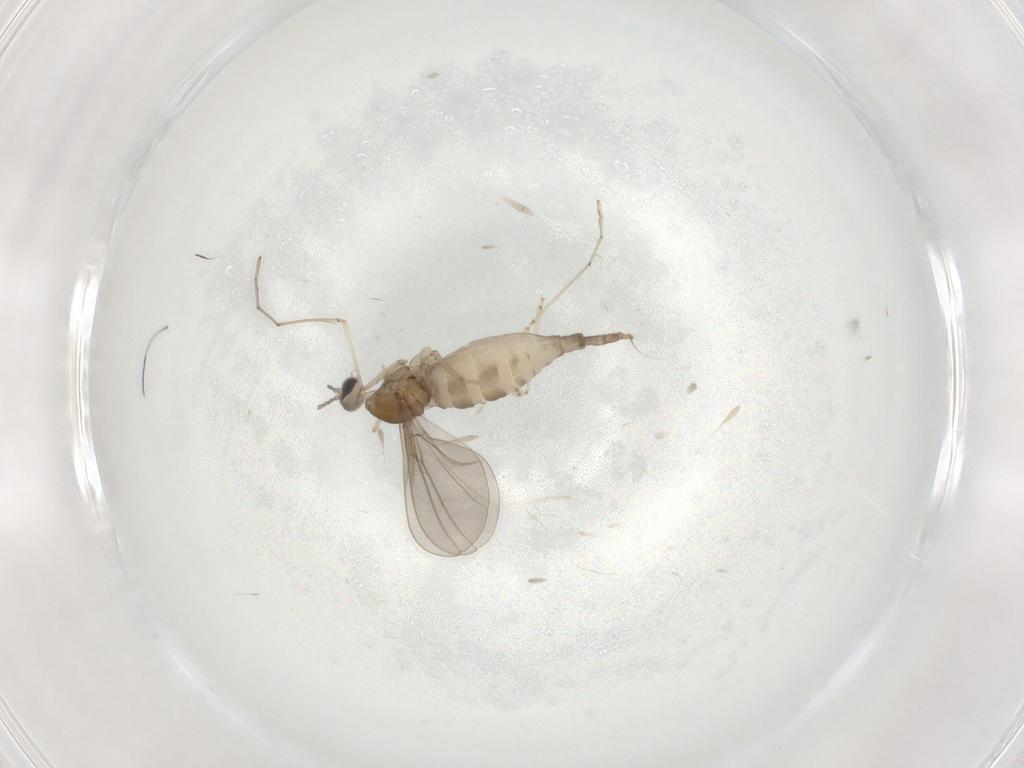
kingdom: Animalia
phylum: Arthropoda
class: Insecta
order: Diptera
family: Cecidomyiidae
